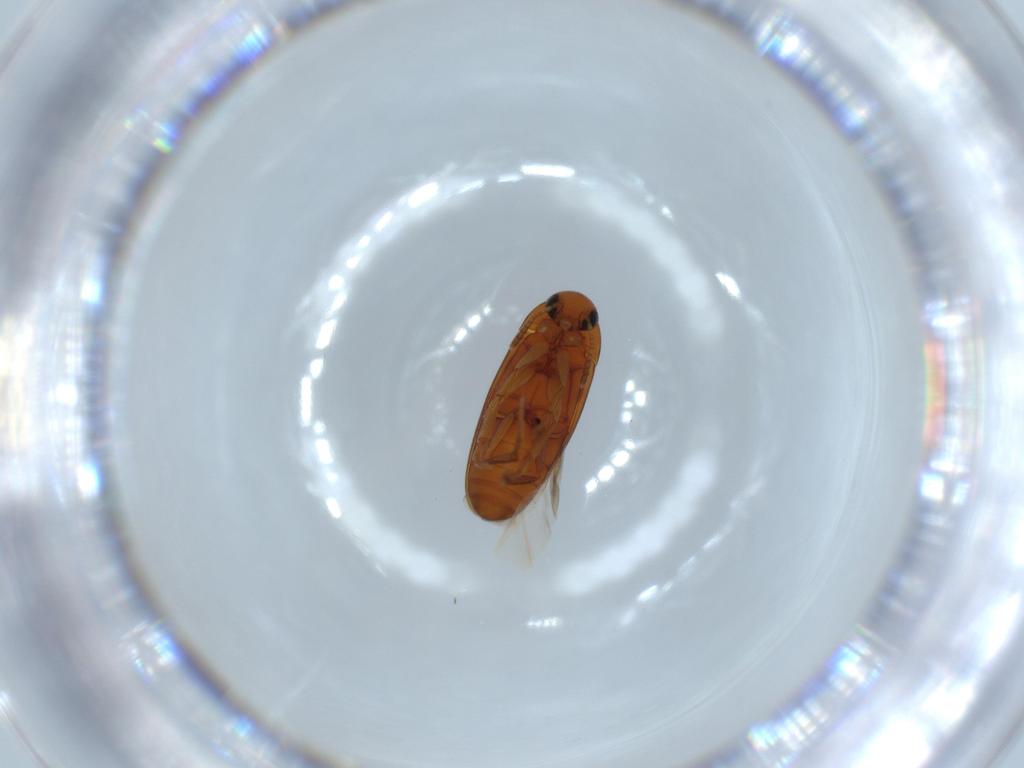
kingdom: Animalia
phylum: Arthropoda
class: Insecta
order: Coleoptera
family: Scraptiidae
